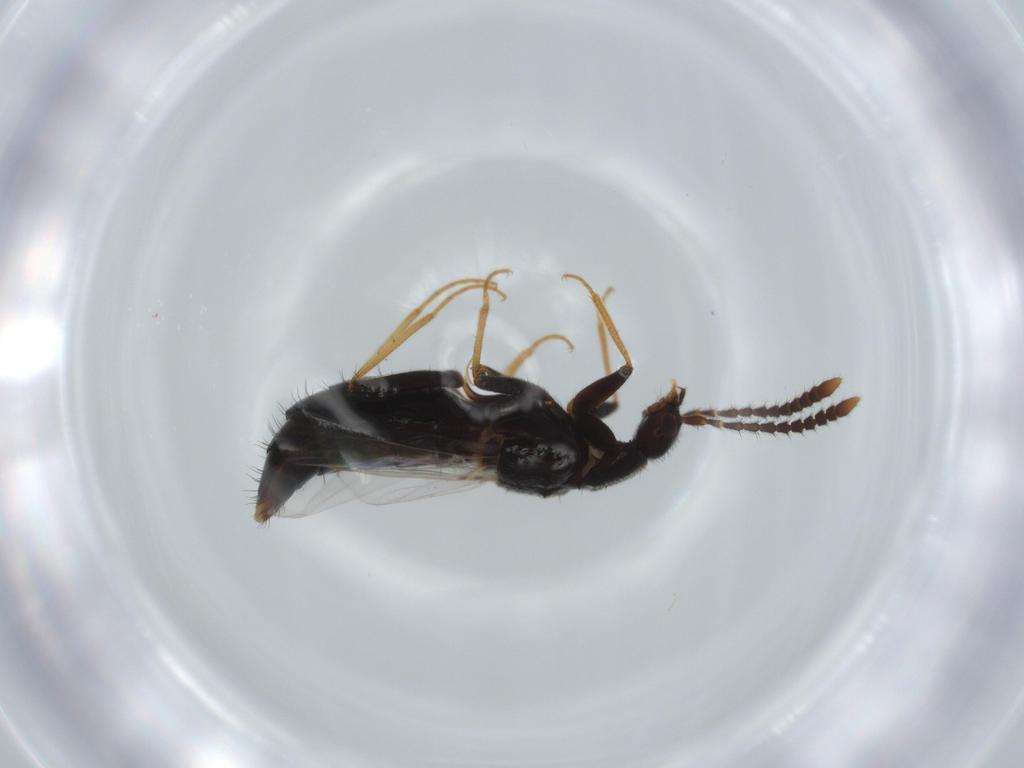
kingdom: Animalia
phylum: Arthropoda
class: Insecta
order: Coleoptera
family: Staphylinidae
